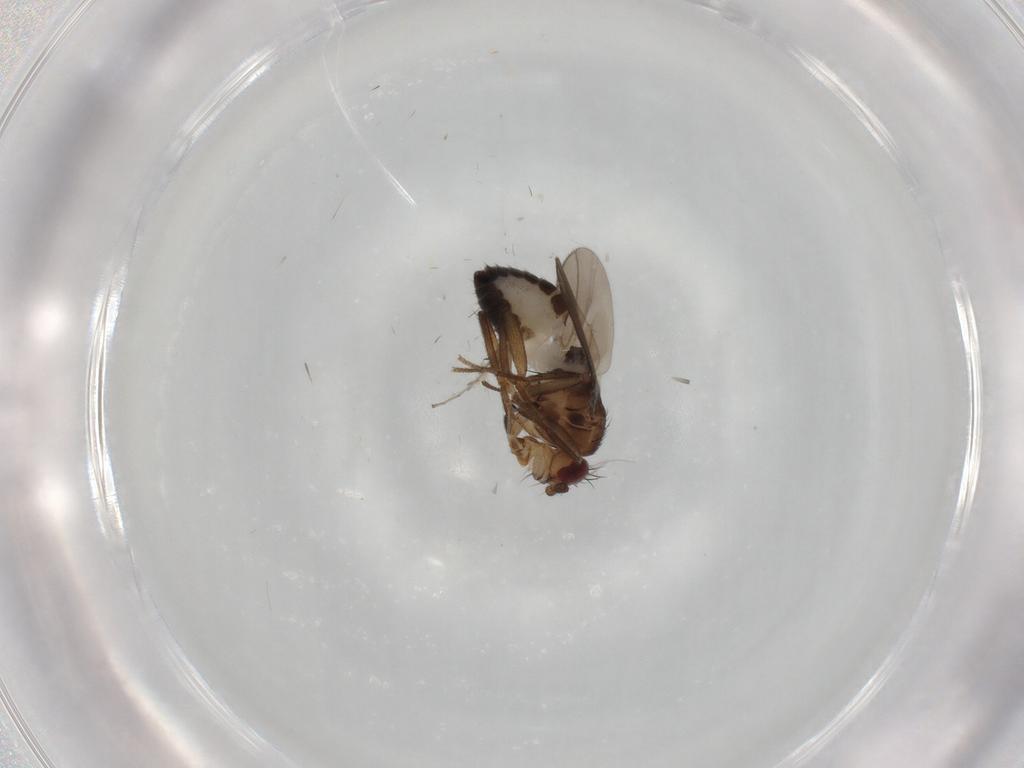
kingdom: Animalia
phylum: Arthropoda
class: Insecta
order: Diptera
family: Sphaeroceridae
